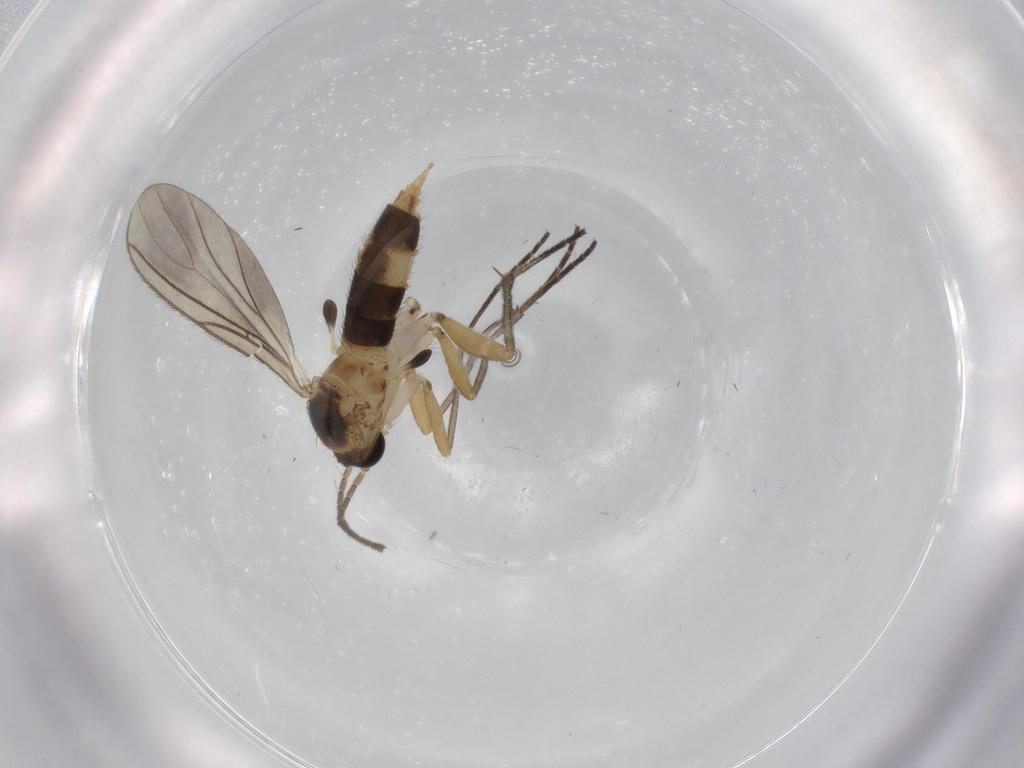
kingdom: Animalia
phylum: Arthropoda
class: Insecta
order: Diptera
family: Sciaridae
